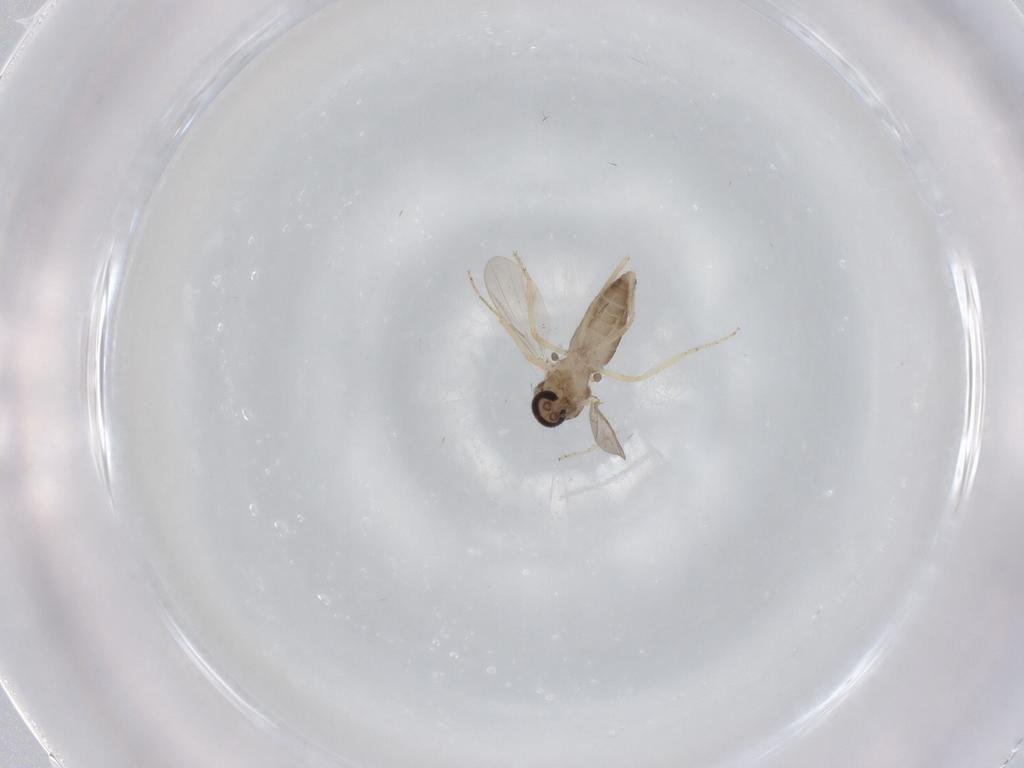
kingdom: Animalia
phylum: Arthropoda
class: Insecta
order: Diptera
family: Ceratopogonidae
